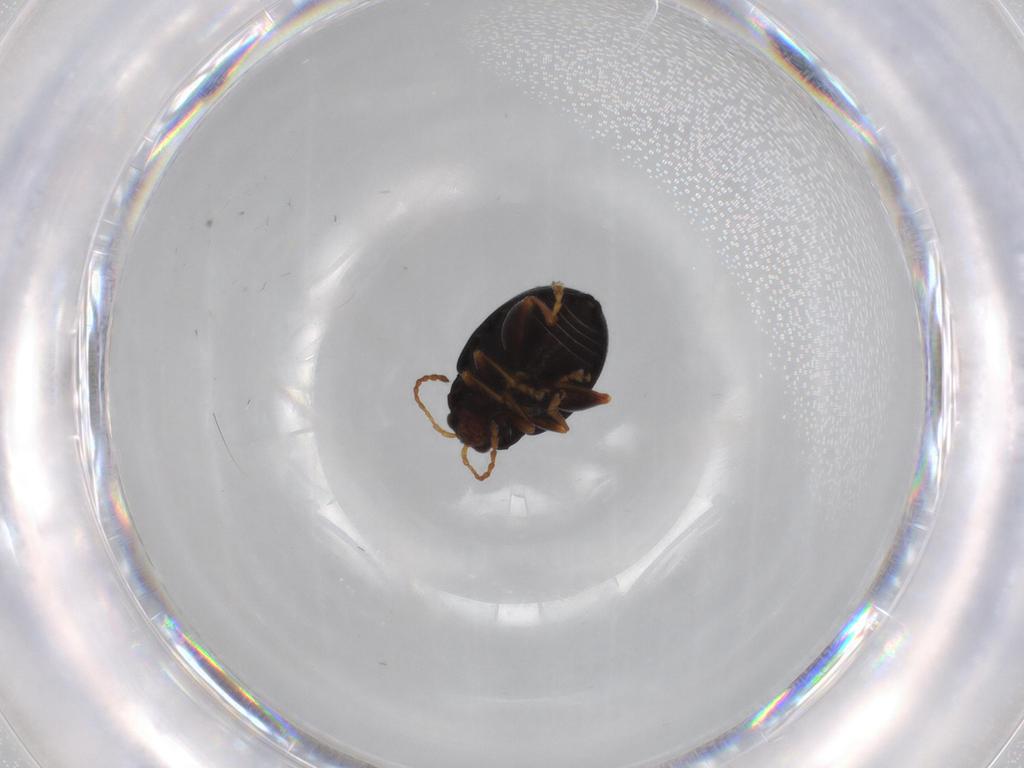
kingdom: Animalia
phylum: Arthropoda
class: Insecta
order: Coleoptera
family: Chrysomelidae
